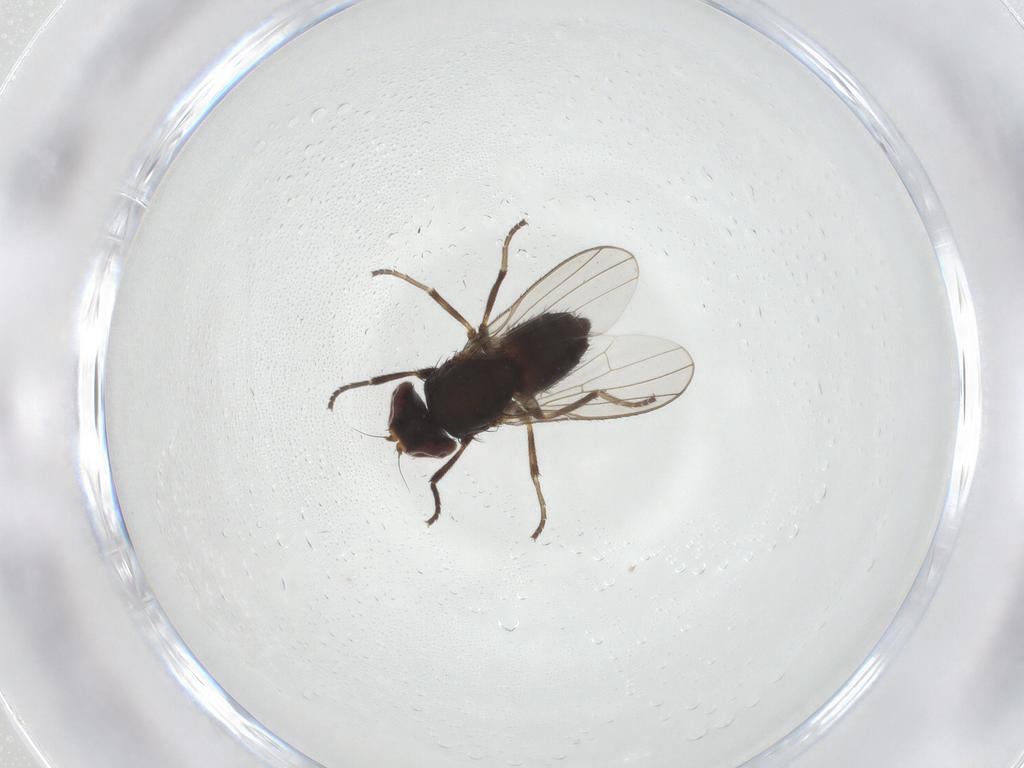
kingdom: Animalia
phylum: Arthropoda
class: Insecta
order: Diptera
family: Heleomyzidae
